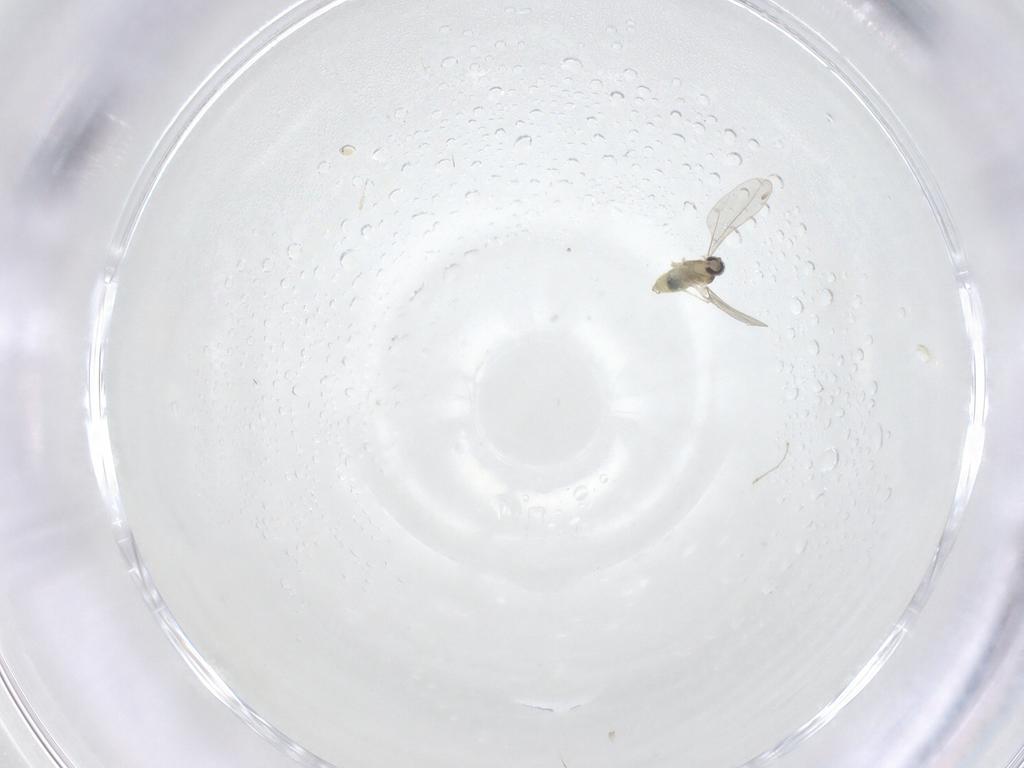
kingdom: Animalia
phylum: Arthropoda
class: Insecta
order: Diptera
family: Cecidomyiidae
